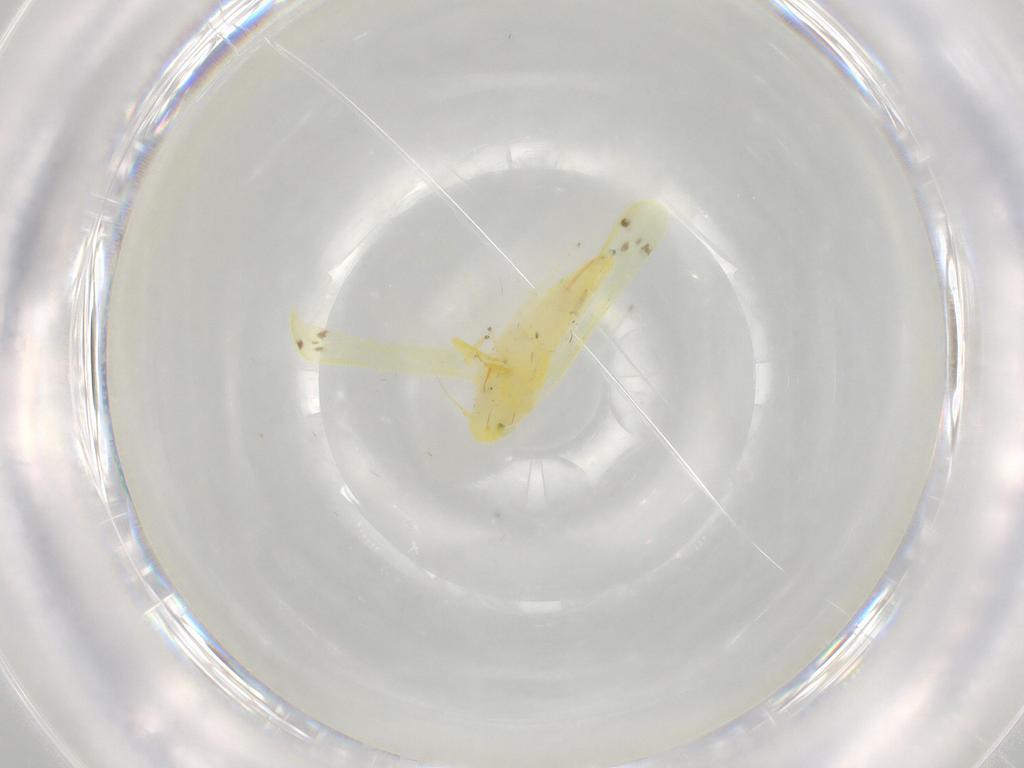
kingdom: Animalia
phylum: Arthropoda
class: Insecta
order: Hemiptera
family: Cicadellidae
